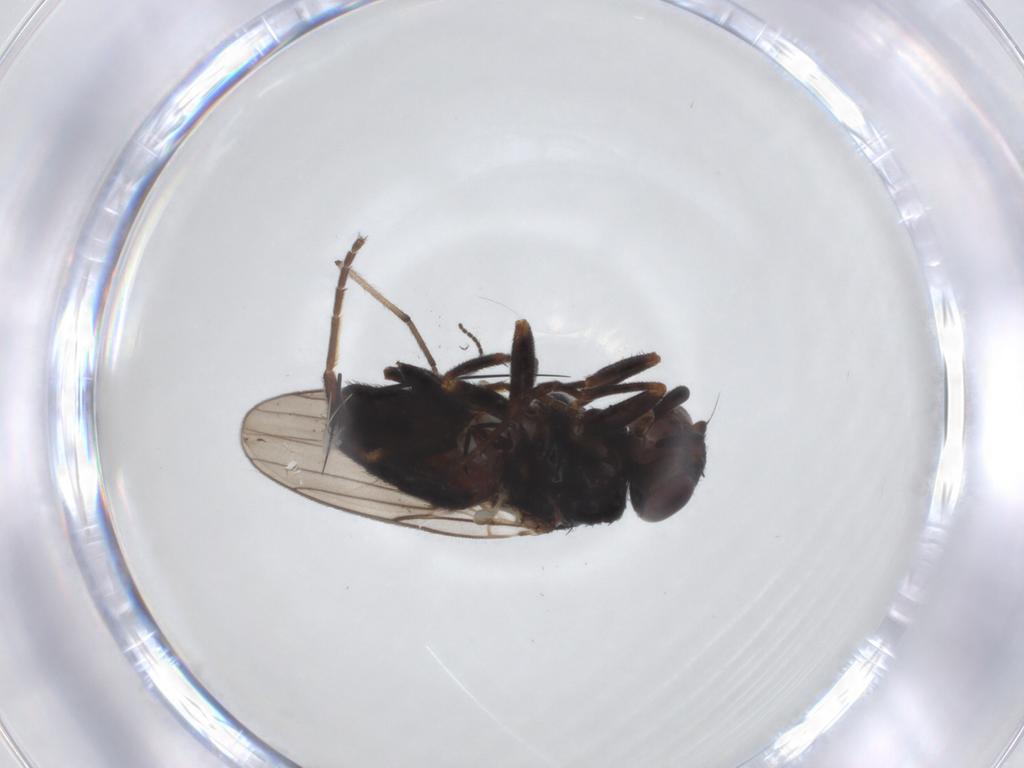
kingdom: Animalia
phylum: Arthropoda
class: Insecta
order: Diptera
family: Chloropidae
